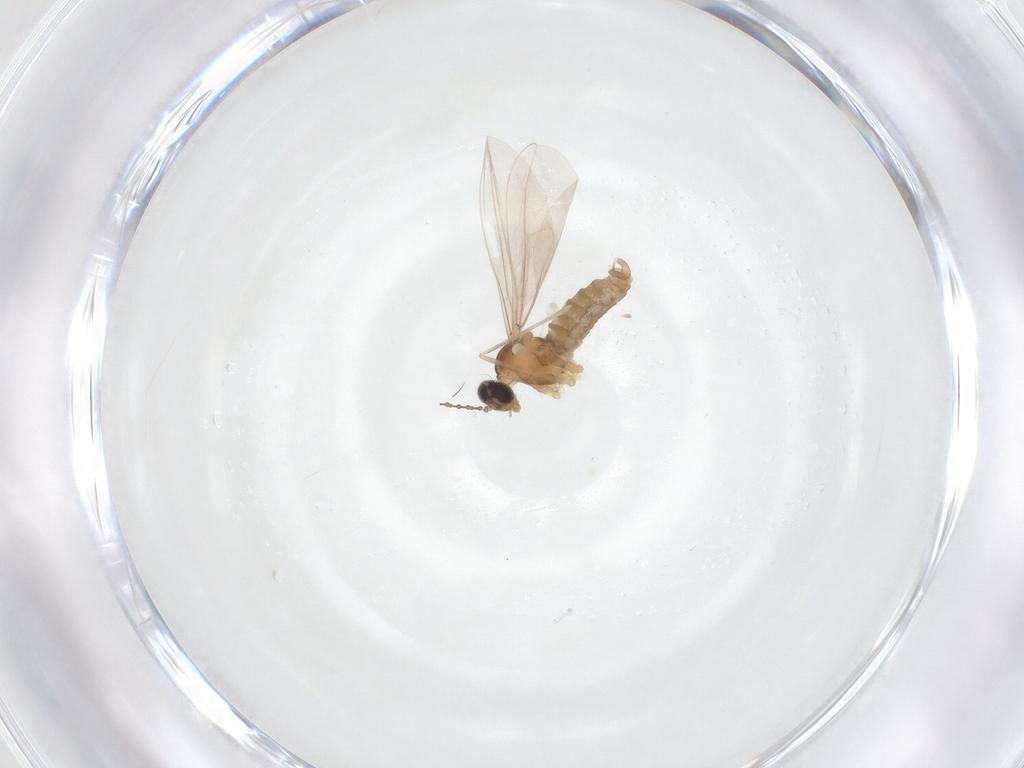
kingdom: Animalia
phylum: Arthropoda
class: Insecta
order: Diptera
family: Cecidomyiidae
